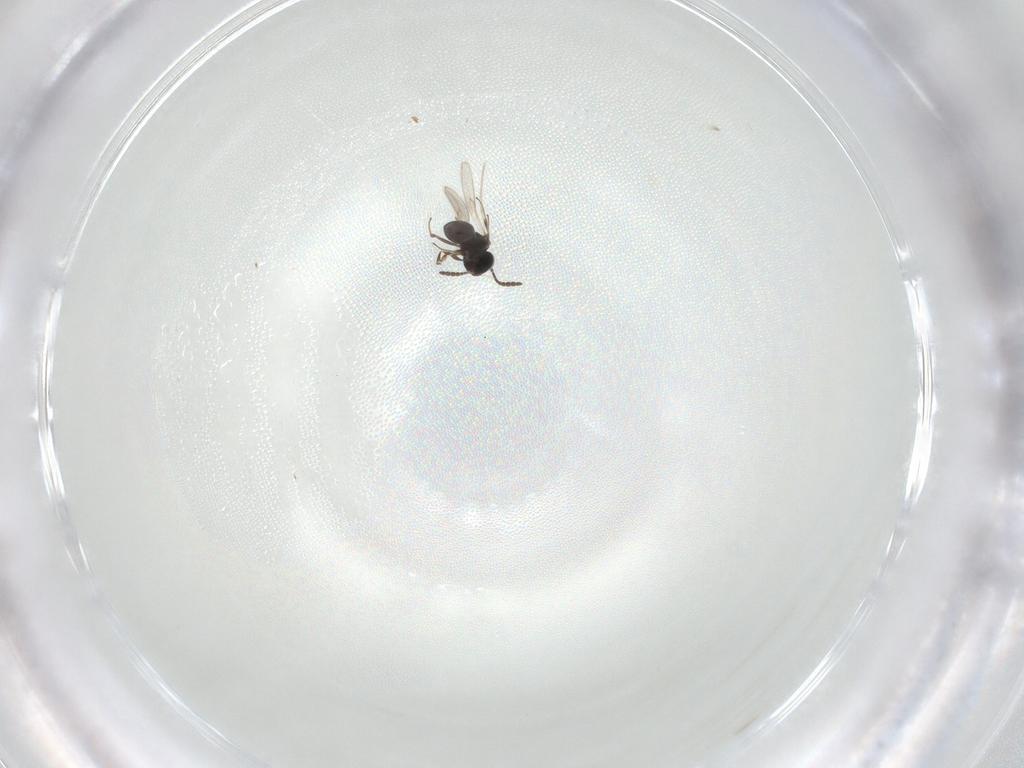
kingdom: Animalia
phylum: Arthropoda
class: Insecta
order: Hymenoptera
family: Scelionidae
